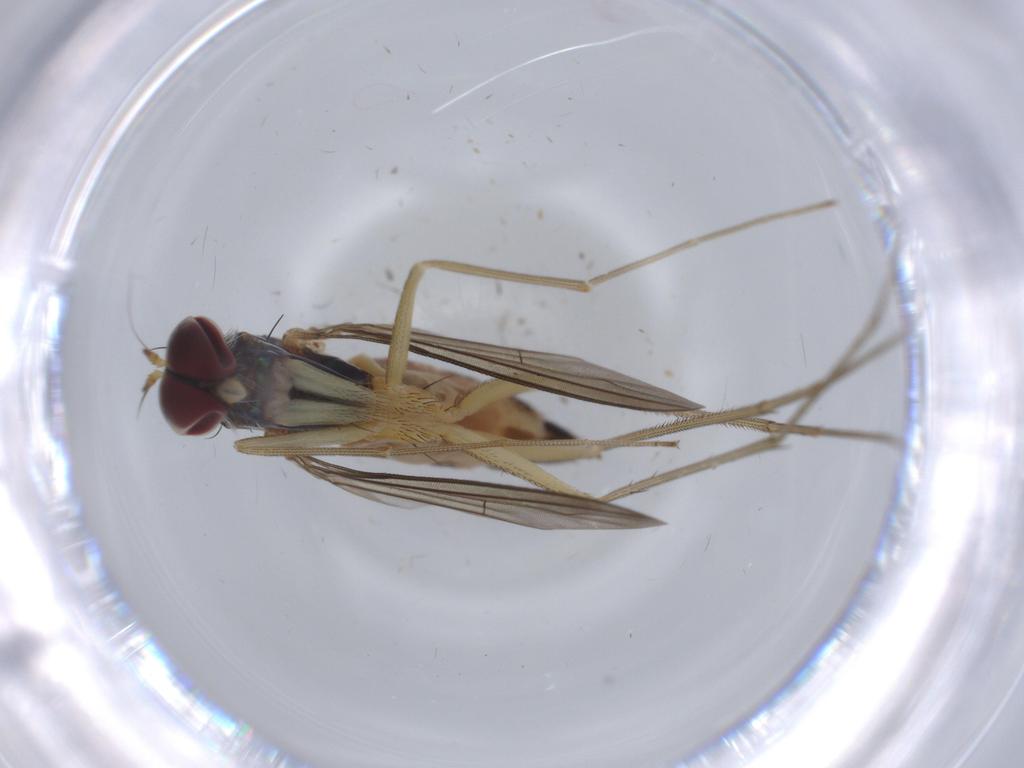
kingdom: Animalia
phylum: Arthropoda
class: Insecta
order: Diptera
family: Dolichopodidae
